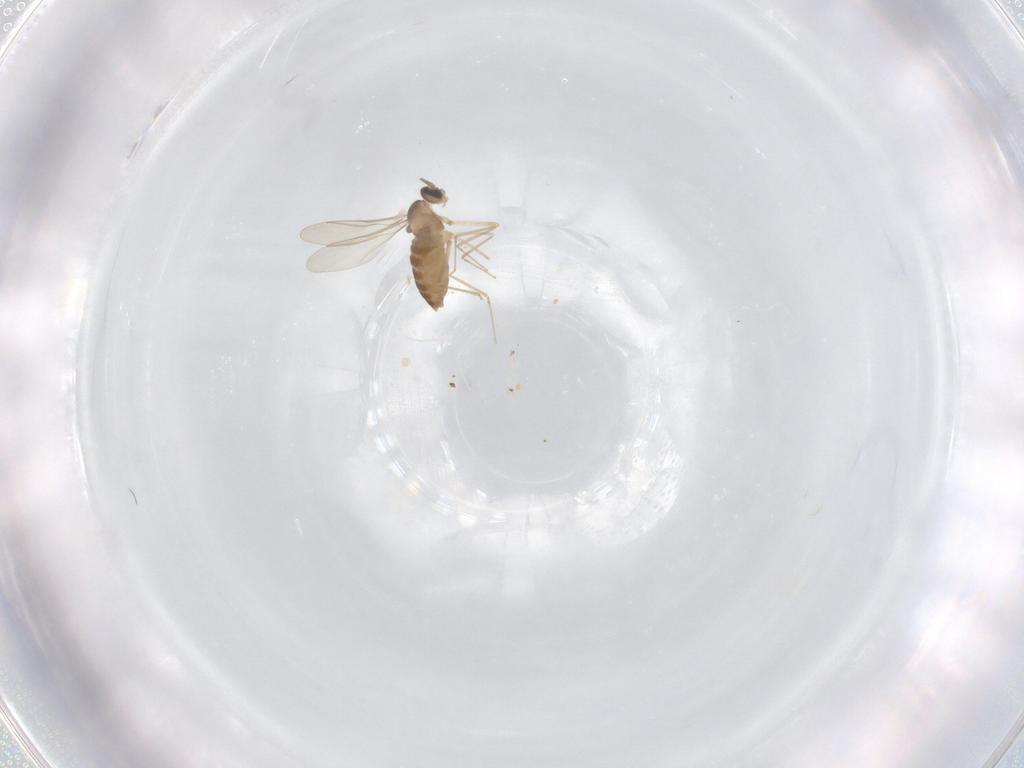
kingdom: Animalia
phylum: Arthropoda
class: Insecta
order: Diptera
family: Cecidomyiidae
